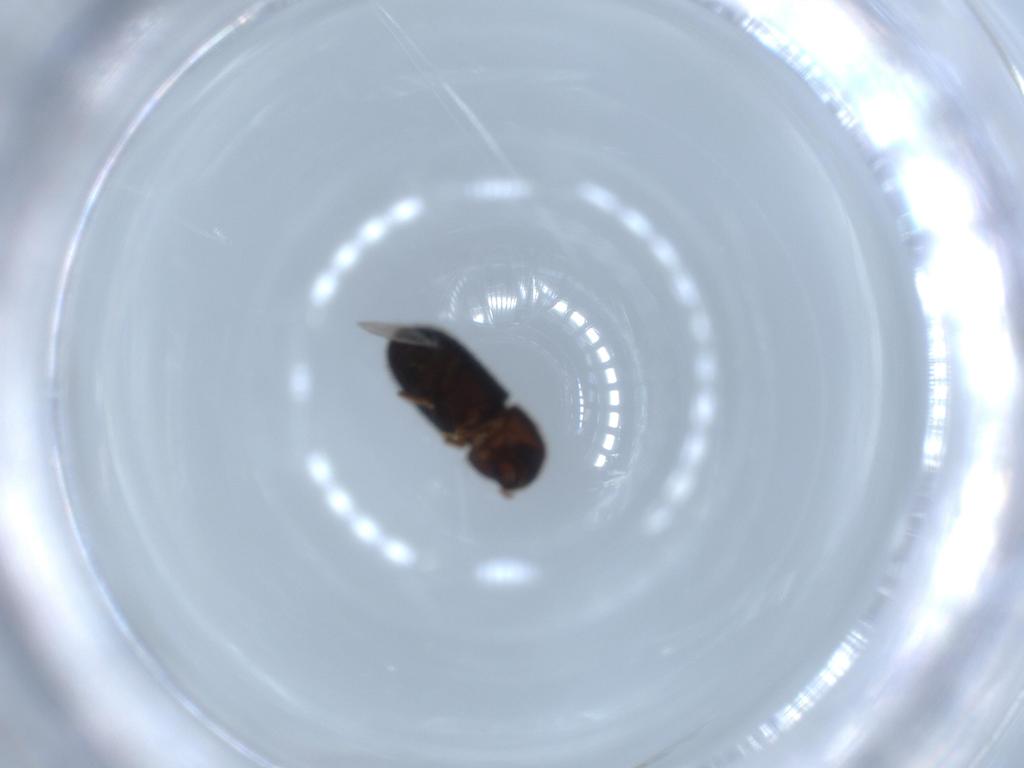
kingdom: Animalia
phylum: Arthropoda
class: Insecta
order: Coleoptera
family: Curculionidae
